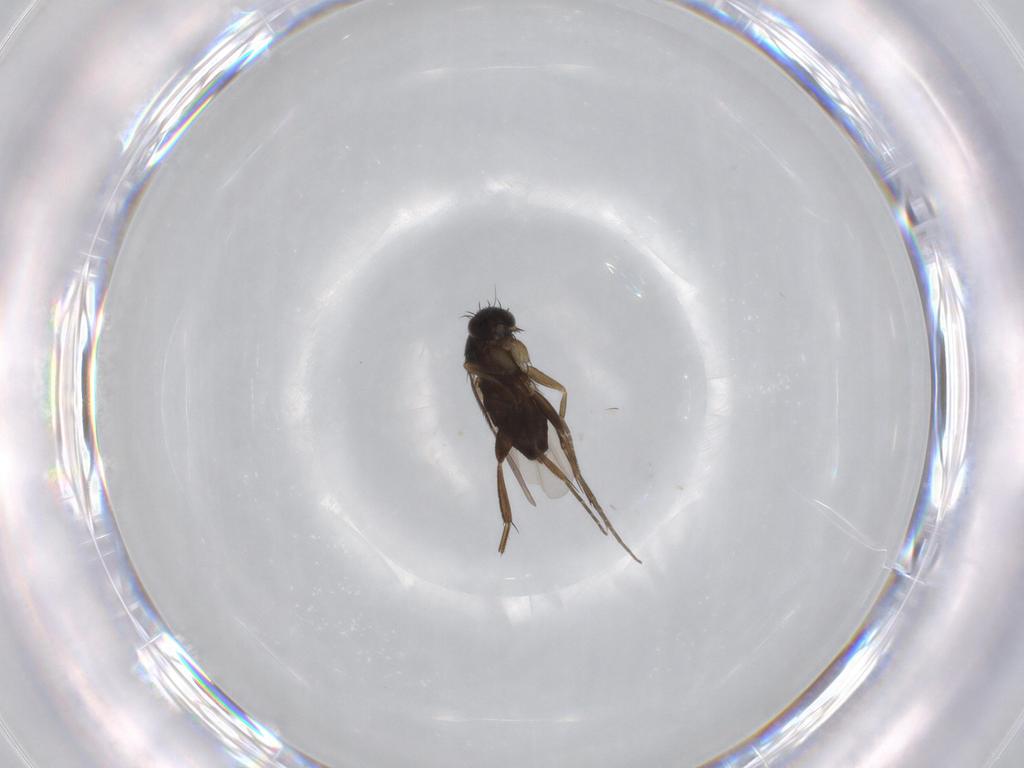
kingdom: Animalia
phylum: Arthropoda
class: Insecta
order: Diptera
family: Phoridae
